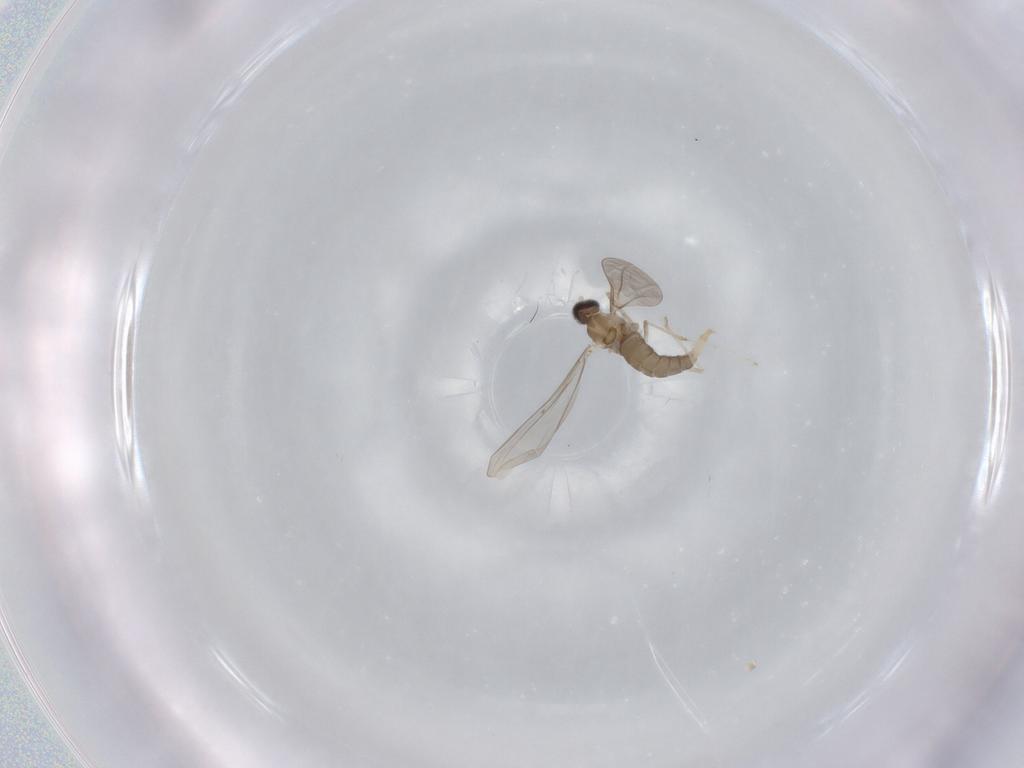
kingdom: Animalia
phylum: Arthropoda
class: Insecta
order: Diptera
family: Cecidomyiidae
